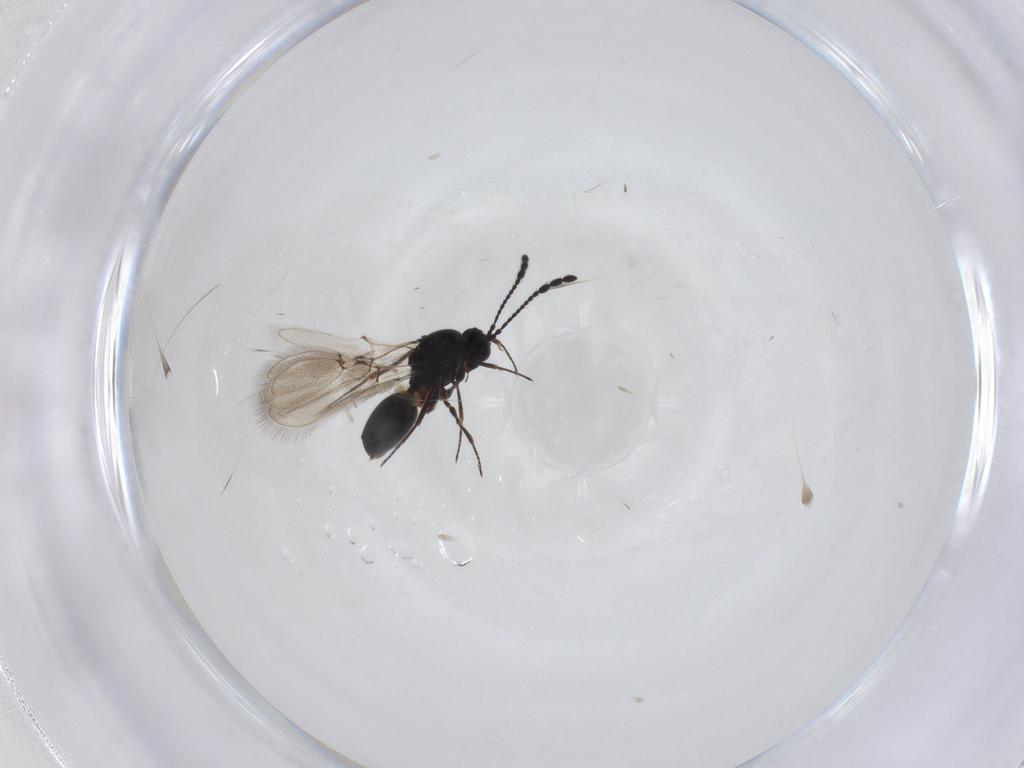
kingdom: Animalia
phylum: Arthropoda
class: Insecta
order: Hymenoptera
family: Figitidae
